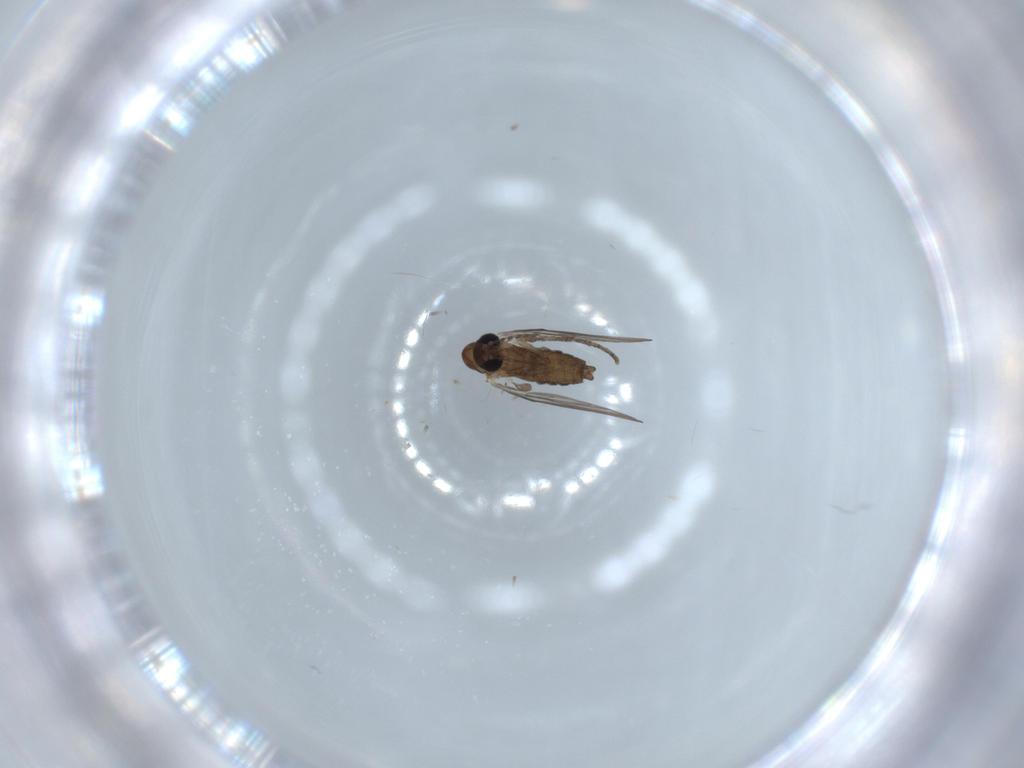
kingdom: Animalia
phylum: Arthropoda
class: Insecta
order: Diptera
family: Psychodidae
